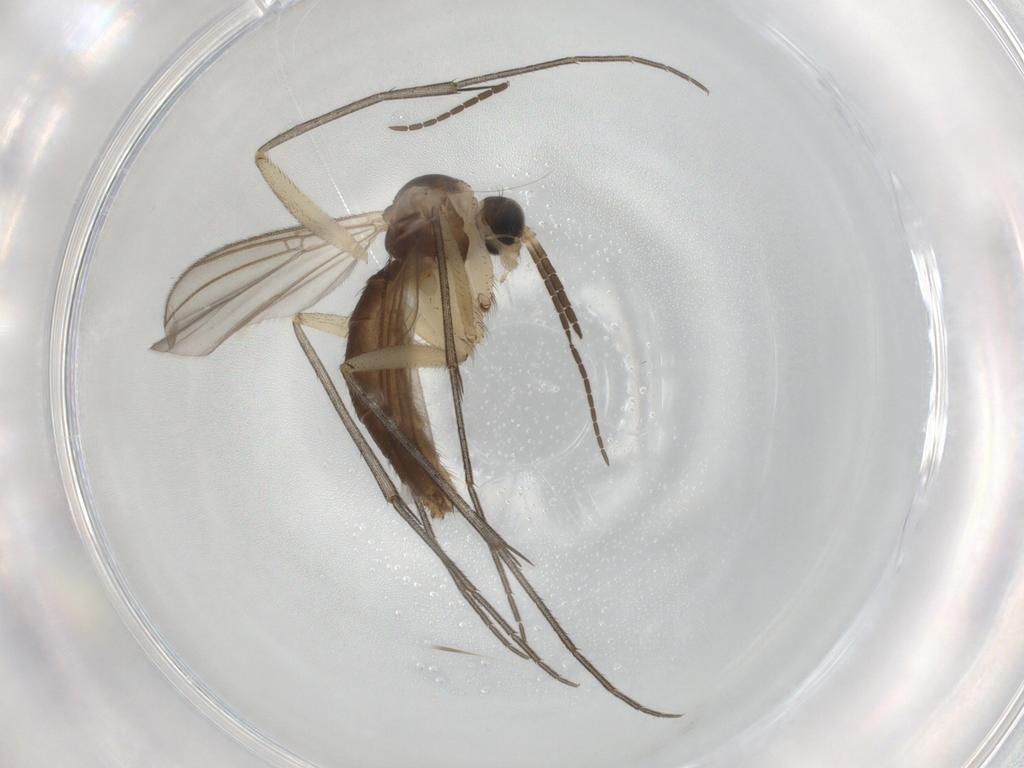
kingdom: Animalia
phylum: Arthropoda
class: Insecta
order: Diptera
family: Mycetophilidae
